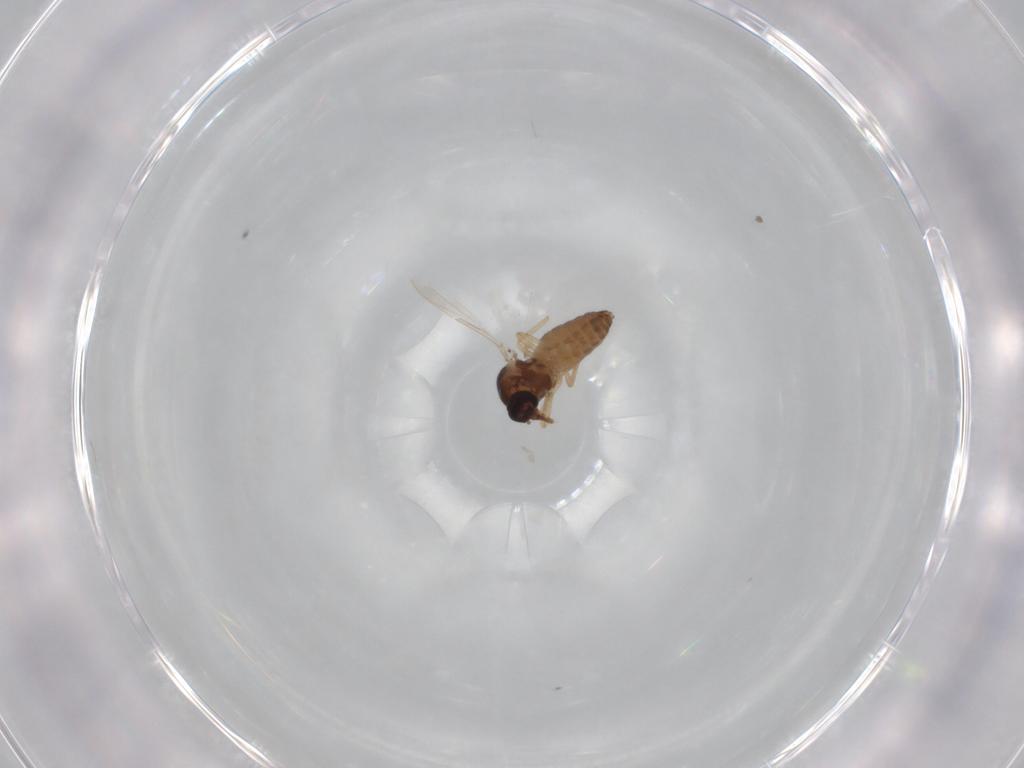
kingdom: Animalia
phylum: Arthropoda
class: Insecta
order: Diptera
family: Ceratopogonidae
